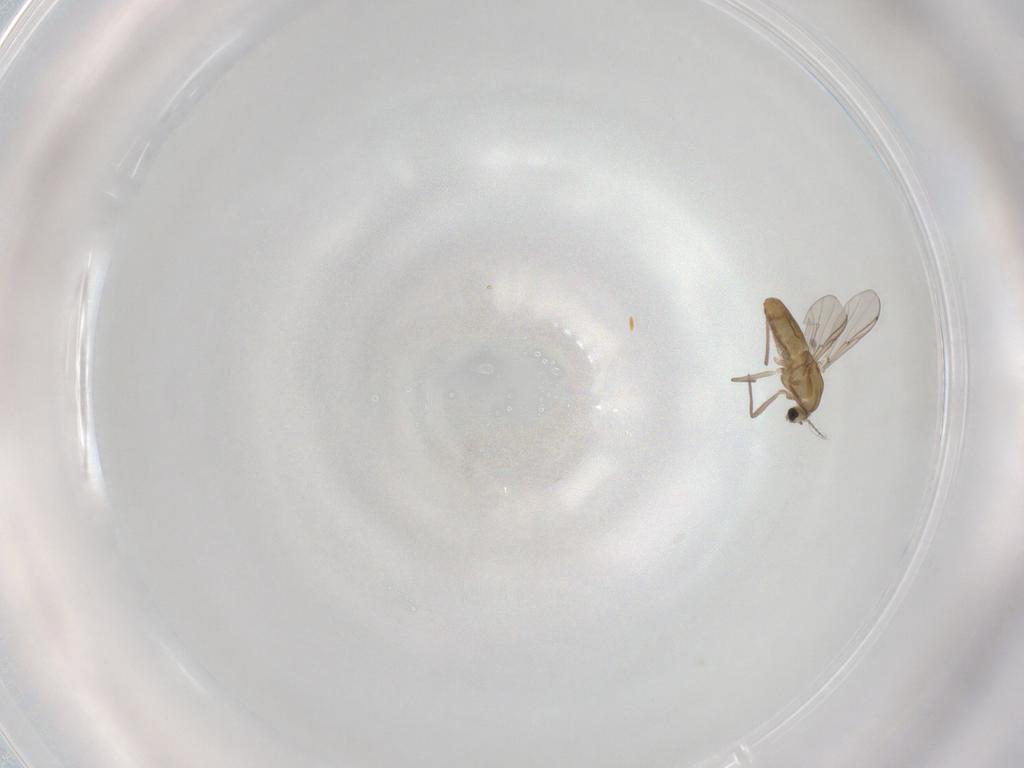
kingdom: Animalia
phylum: Arthropoda
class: Insecta
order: Diptera
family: Chironomidae
